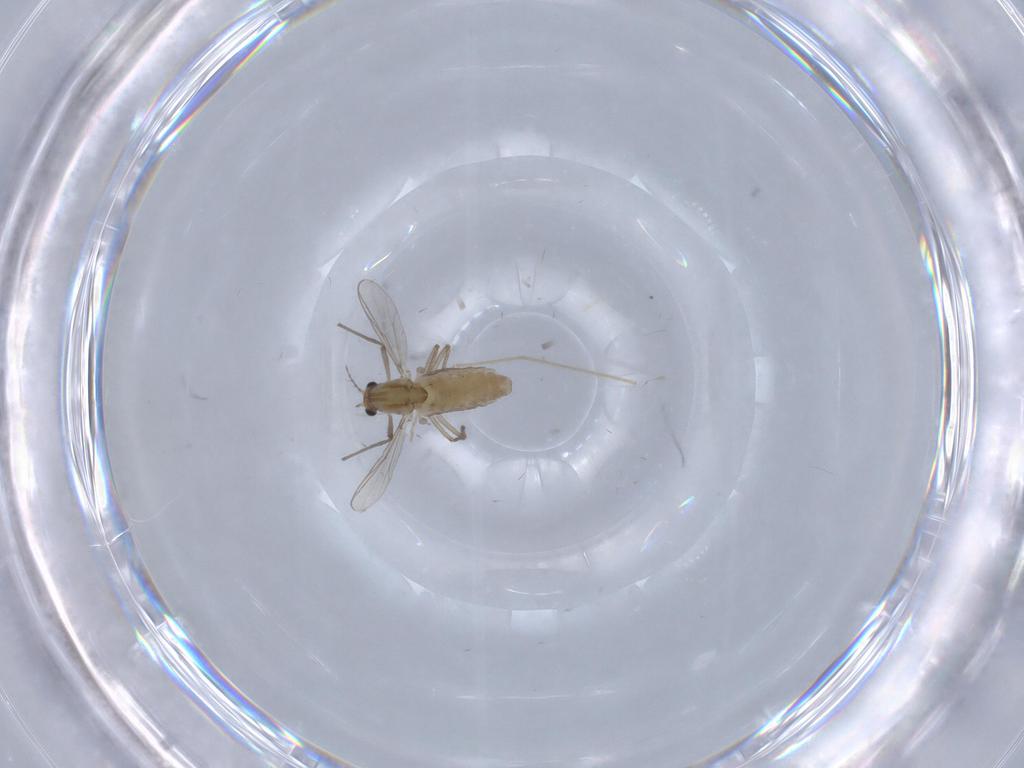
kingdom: Animalia
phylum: Arthropoda
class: Insecta
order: Diptera
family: Chironomidae
